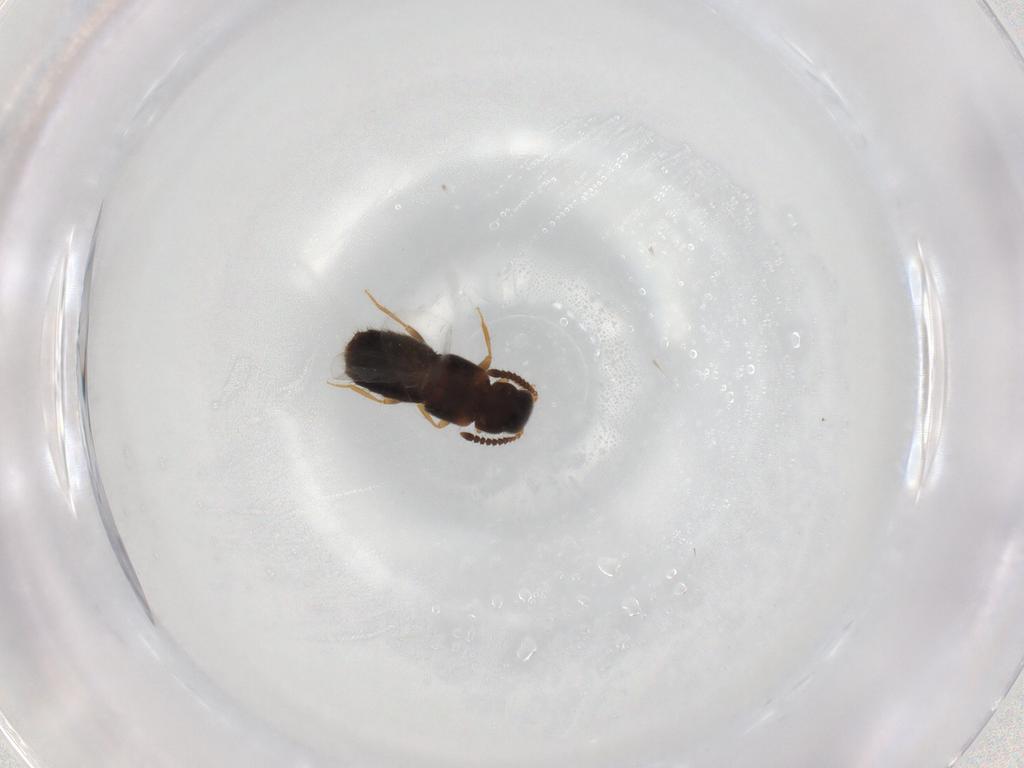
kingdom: Animalia
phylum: Arthropoda
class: Insecta
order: Coleoptera
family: Staphylinidae
